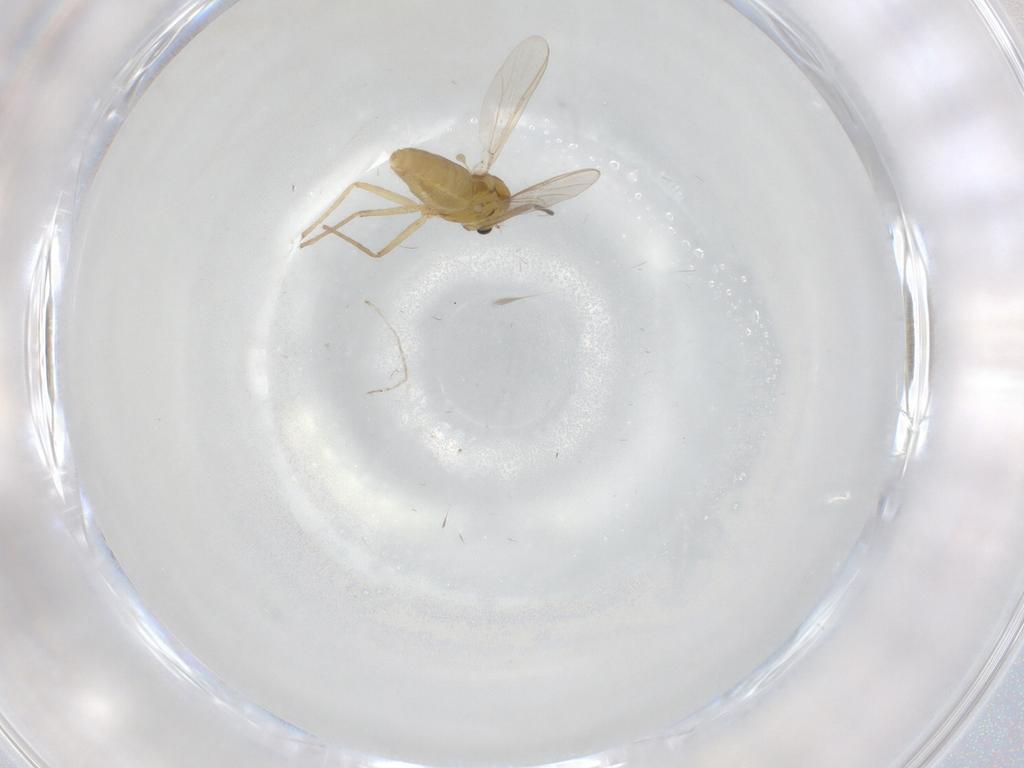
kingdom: Animalia
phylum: Arthropoda
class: Insecta
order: Diptera
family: Chironomidae
